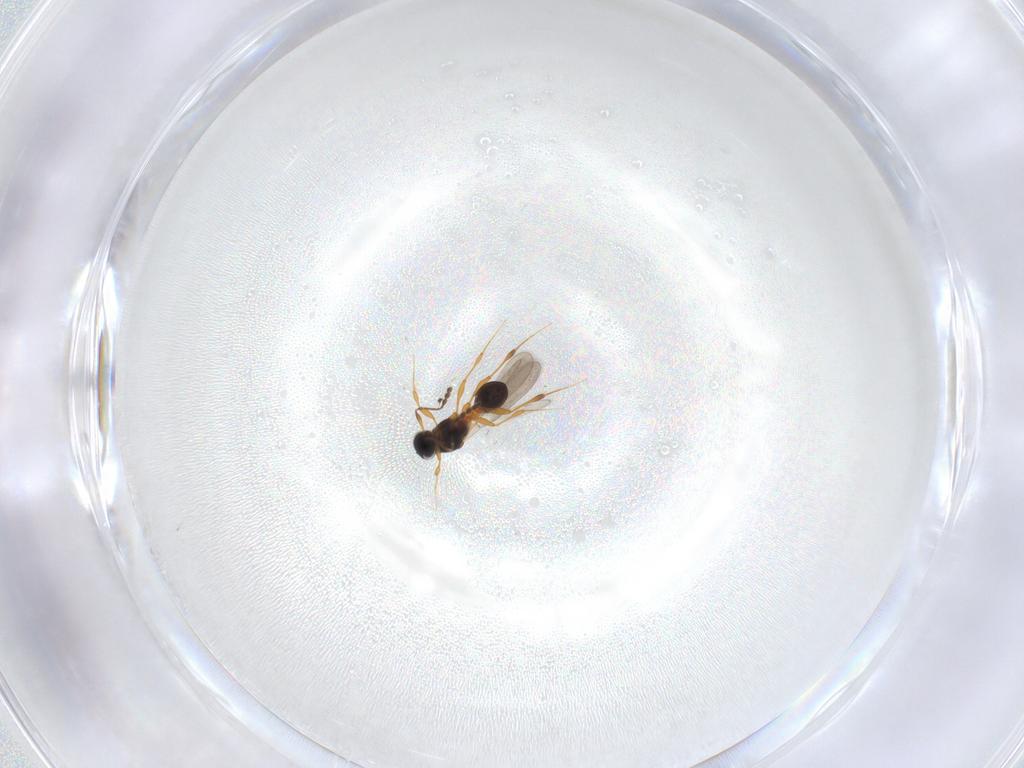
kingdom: Animalia
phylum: Arthropoda
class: Insecta
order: Hymenoptera
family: Platygastridae
